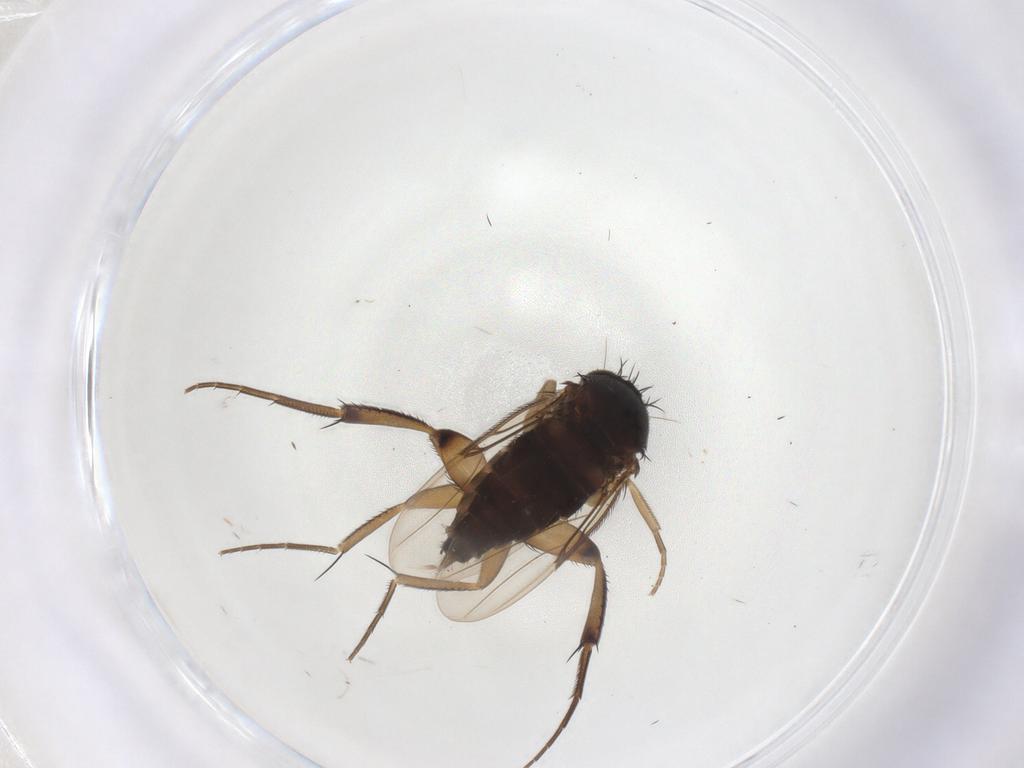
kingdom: Animalia
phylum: Arthropoda
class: Insecta
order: Diptera
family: Phoridae
